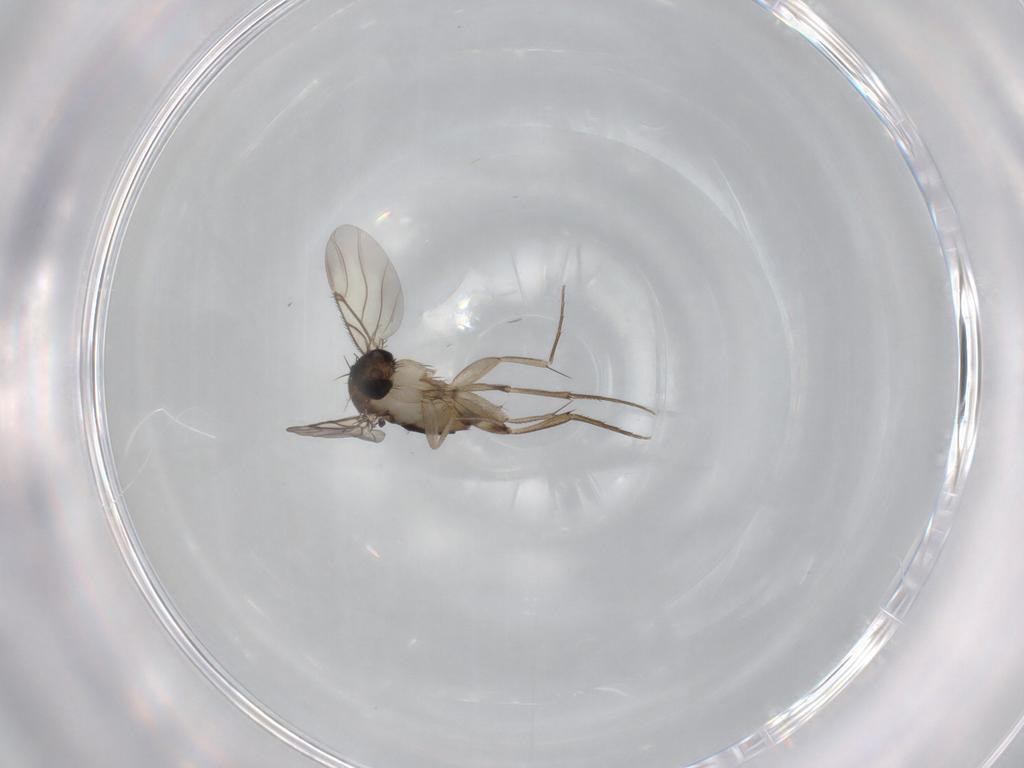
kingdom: Animalia
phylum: Arthropoda
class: Insecta
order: Diptera
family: Phoridae
